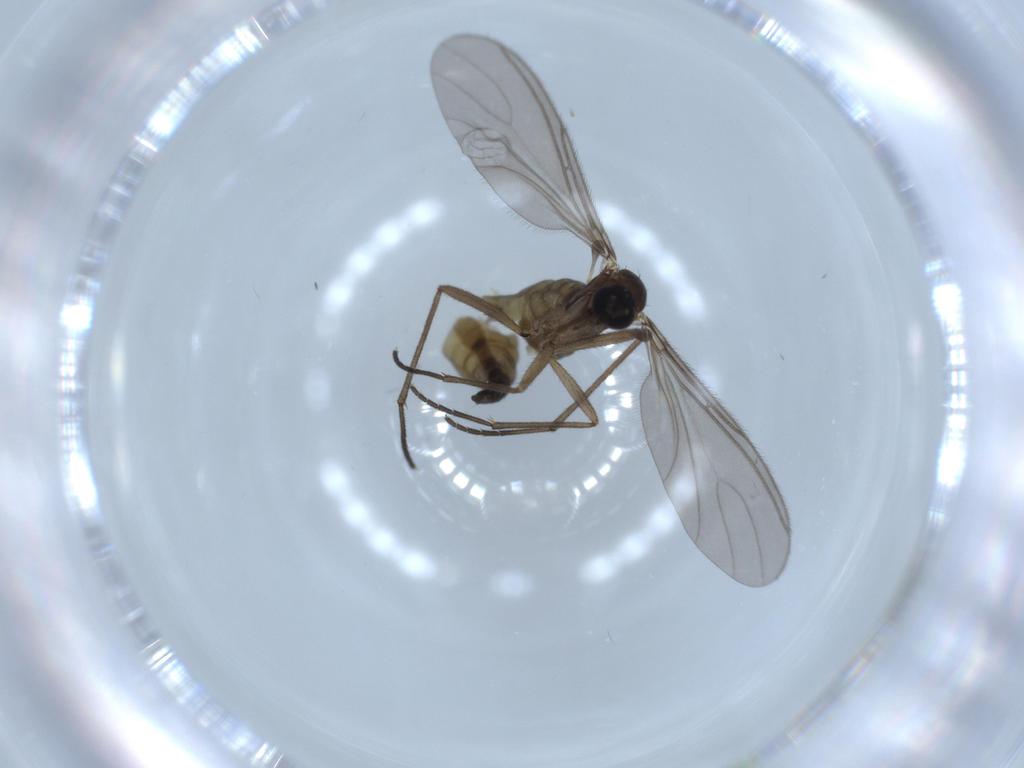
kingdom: Animalia
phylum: Arthropoda
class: Insecta
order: Diptera
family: Sciaridae
